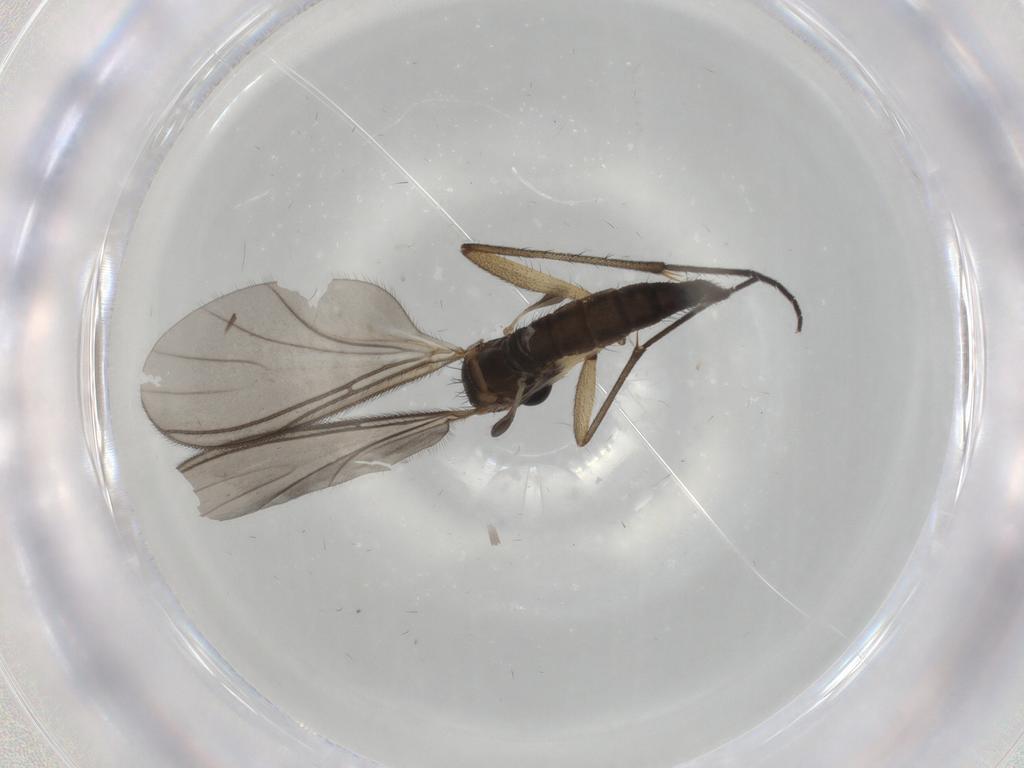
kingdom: Animalia
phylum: Arthropoda
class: Insecta
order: Diptera
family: Sciaridae
